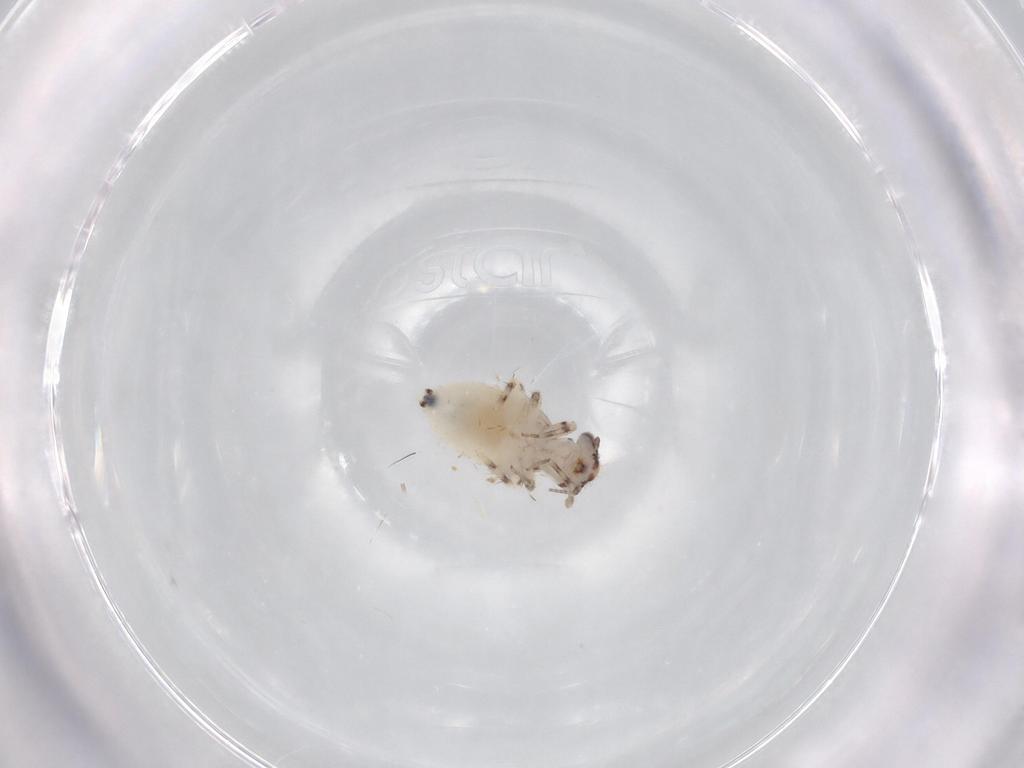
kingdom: Animalia
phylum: Arthropoda
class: Insecta
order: Psocodea
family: Lepidopsocidae
